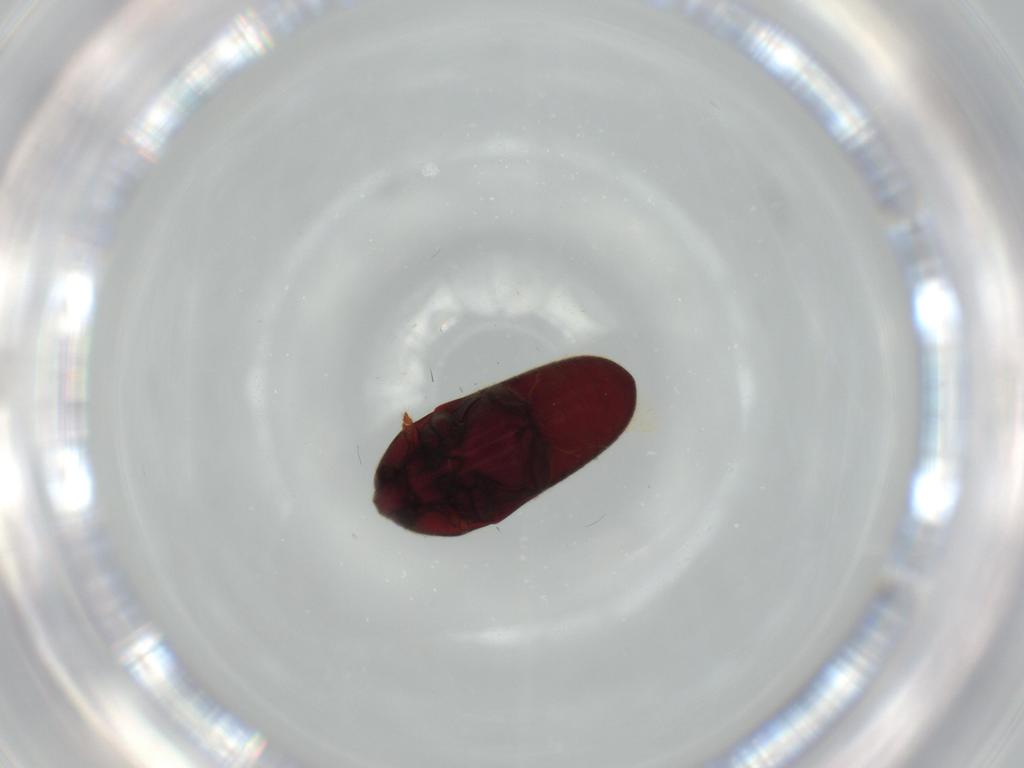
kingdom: Animalia
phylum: Arthropoda
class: Insecta
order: Coleoptera
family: Throscidae
